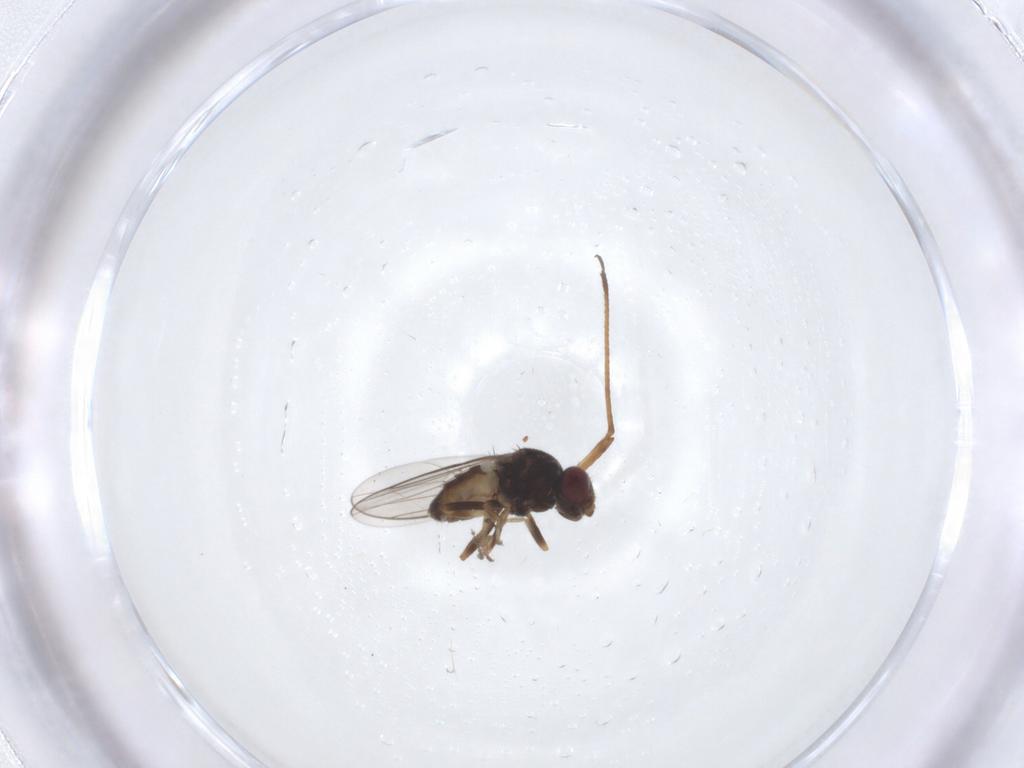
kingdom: Animalia
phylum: Arthropoda
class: Insecta
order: Diptera
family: Chloropidae
